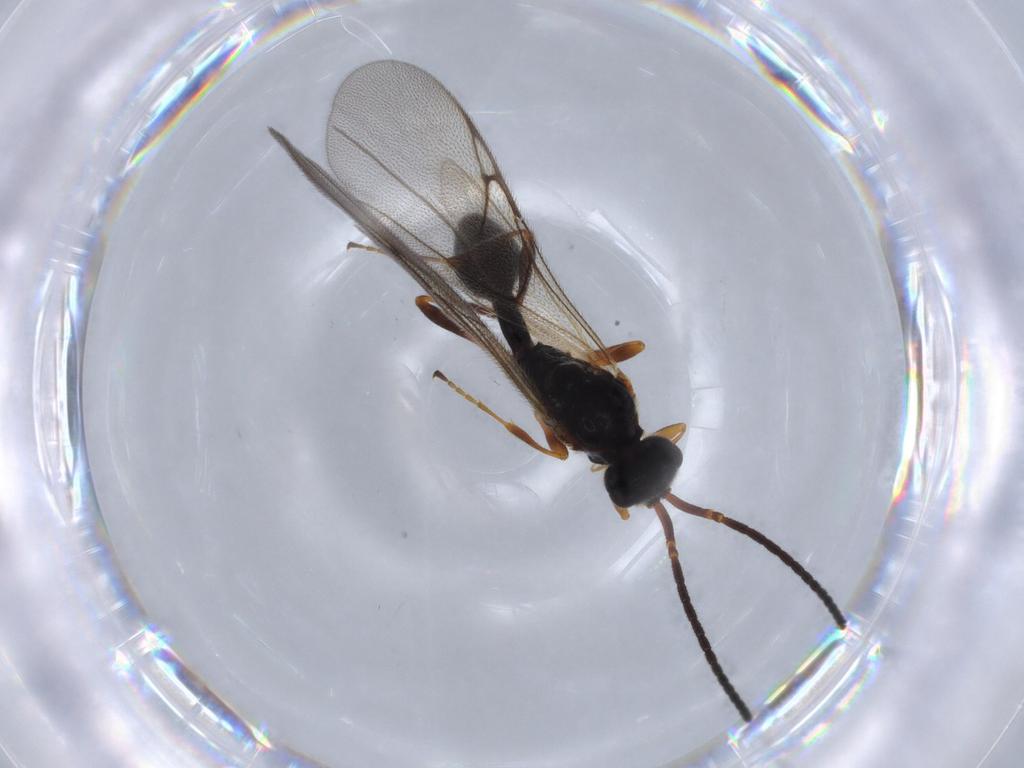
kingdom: Animalia
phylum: Arthropoda
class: Insecta
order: Hymenoptera
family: Diapriidae
